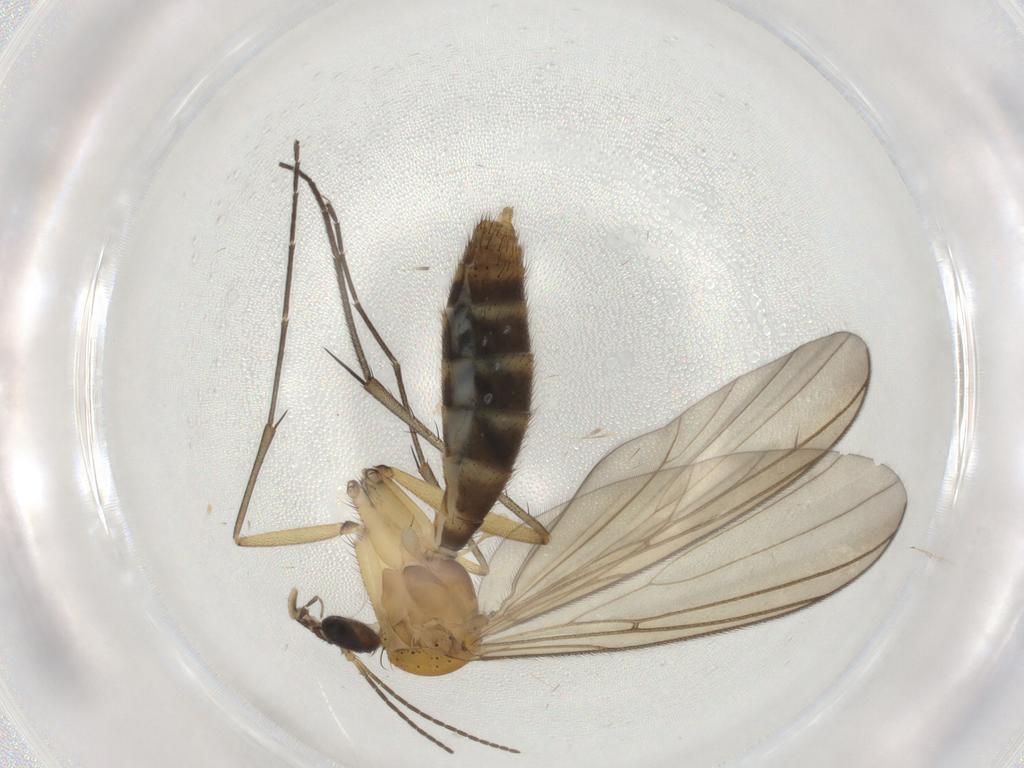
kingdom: Animalia
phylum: Arthropoda
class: Insecta
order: Diptera
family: Mycetophilidae
